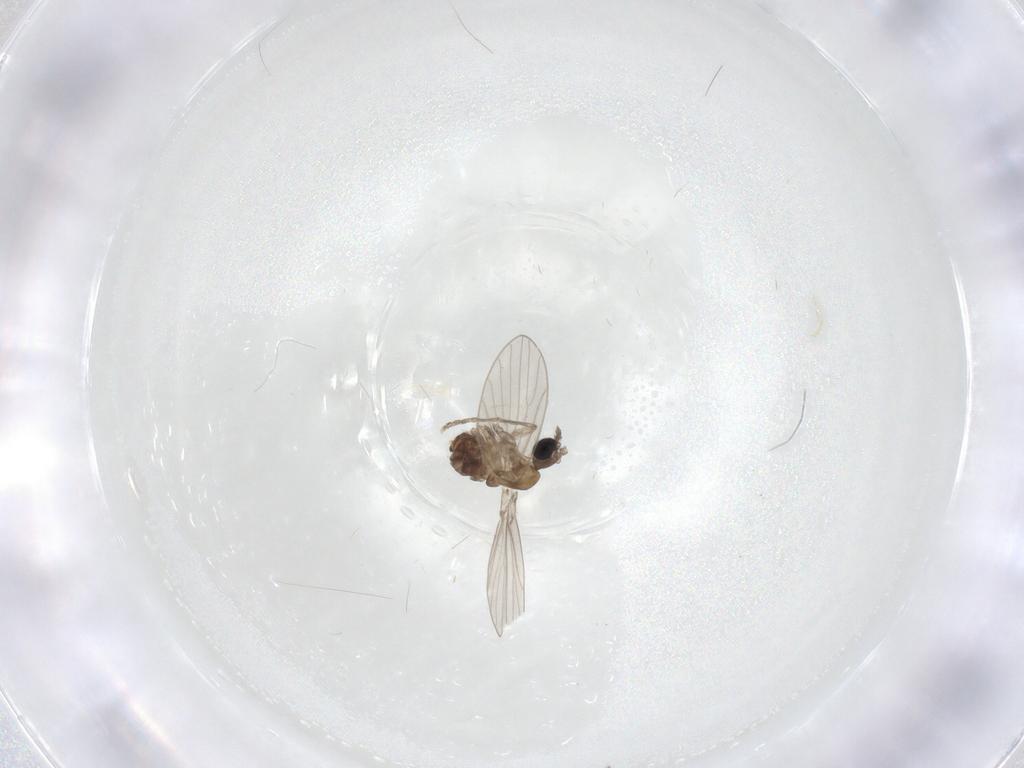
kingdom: Animalia
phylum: Arthropoda
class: Insecta
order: Diptera
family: Psychodidae
